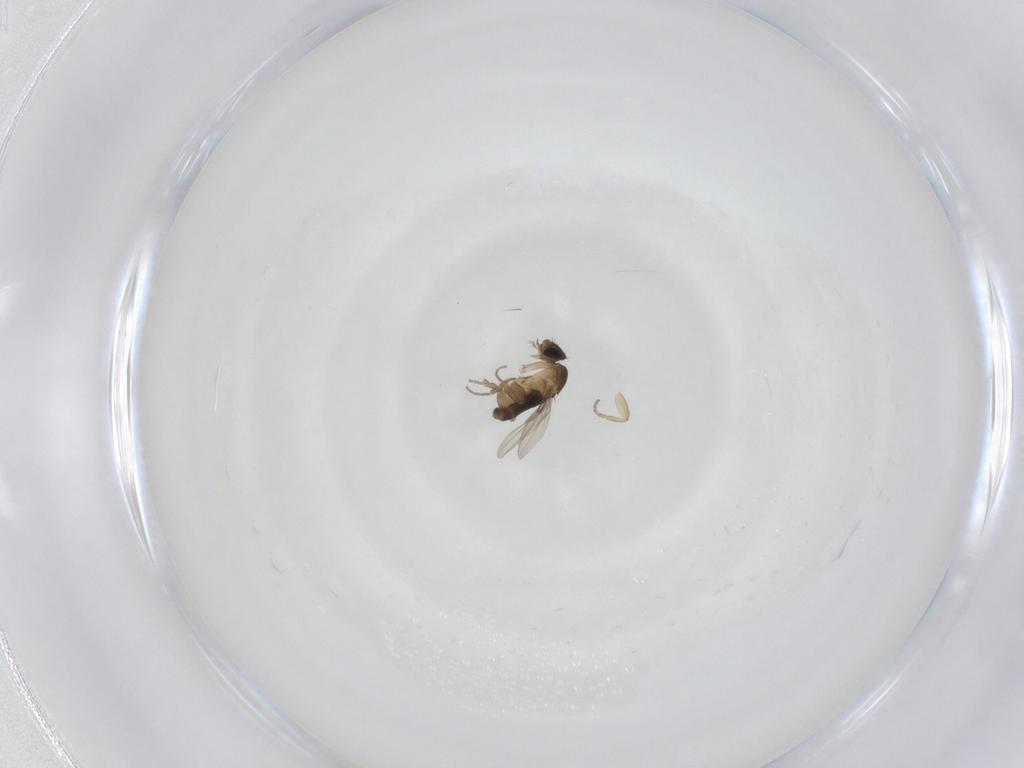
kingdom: Animalia
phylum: Arthropoda
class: Insecta
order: Diptera
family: Phoridae
